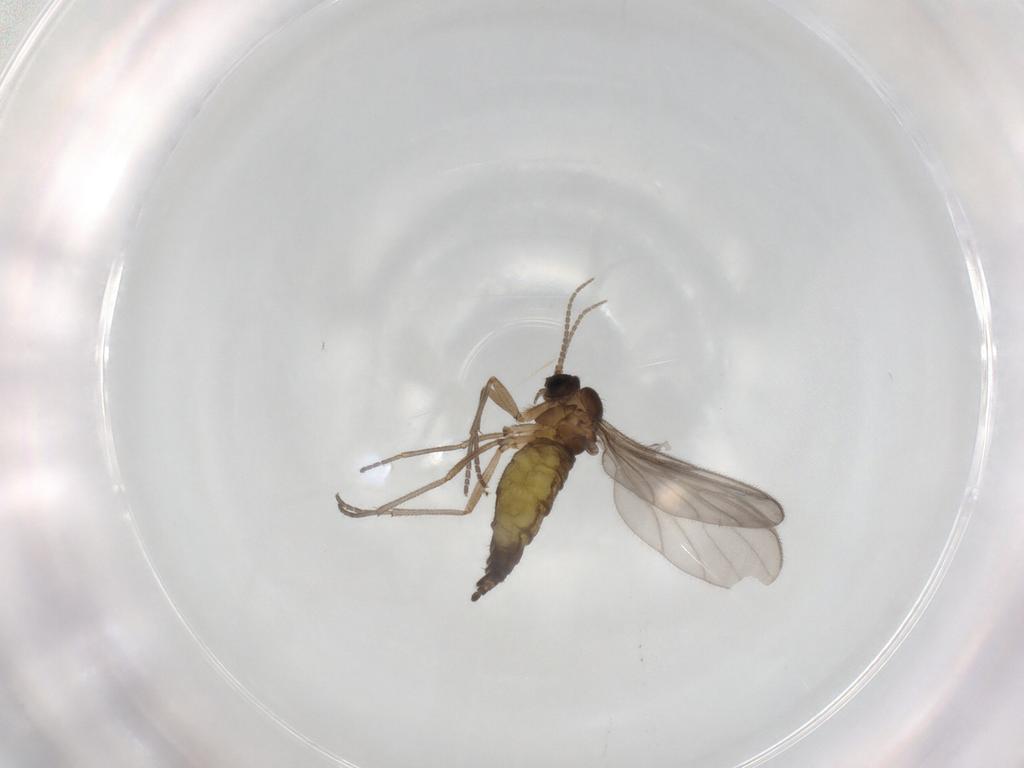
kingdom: Animalia
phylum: Arthropoda
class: Insecta
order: Diptera
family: Sciaridae
